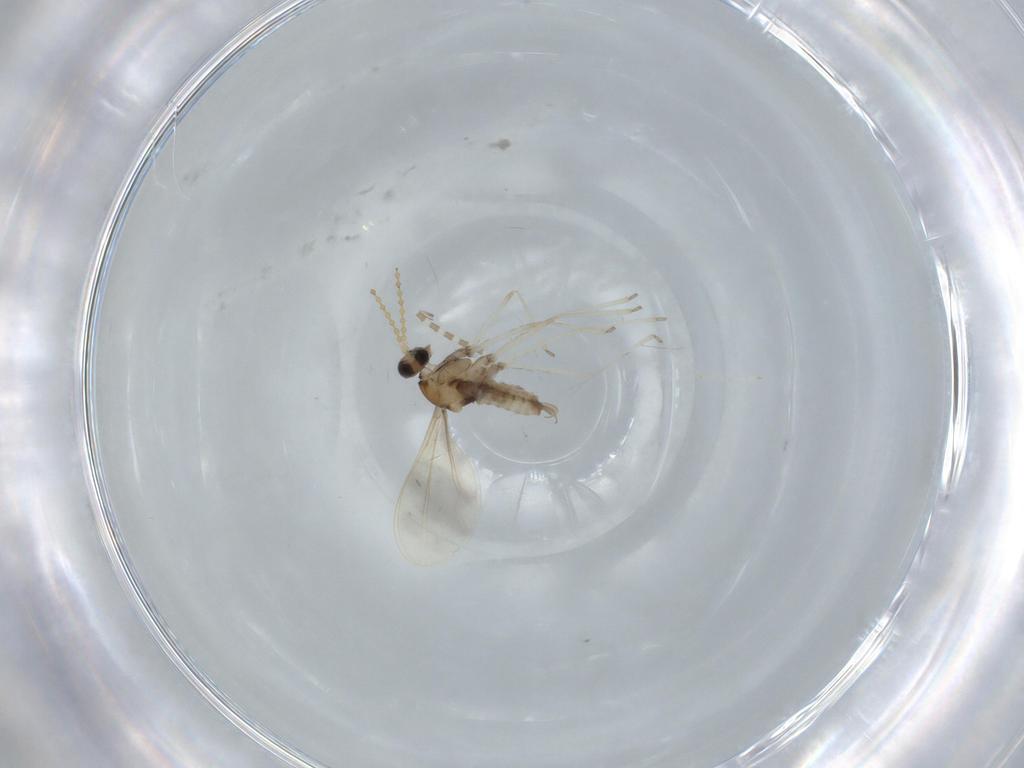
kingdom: Animalia
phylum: Arthropoda
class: Insecta
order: Diptera
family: Cecidomyiidae
